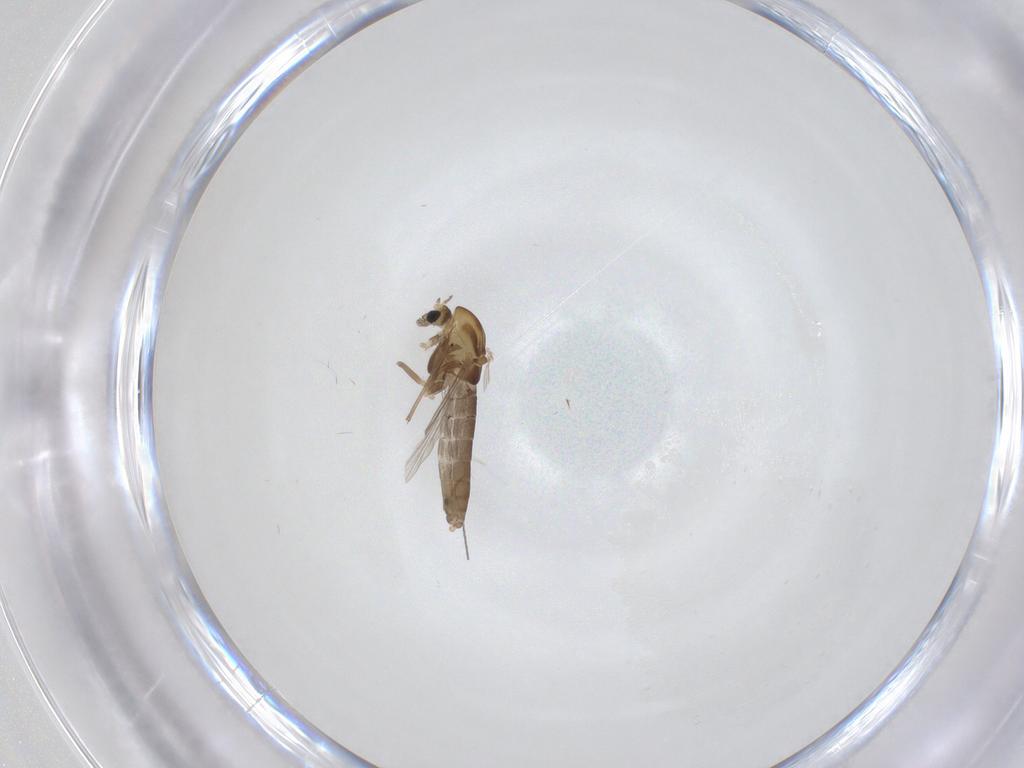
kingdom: Animalia
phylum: Arthropoda
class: Insecta
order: Diptera
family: Chironomidae
